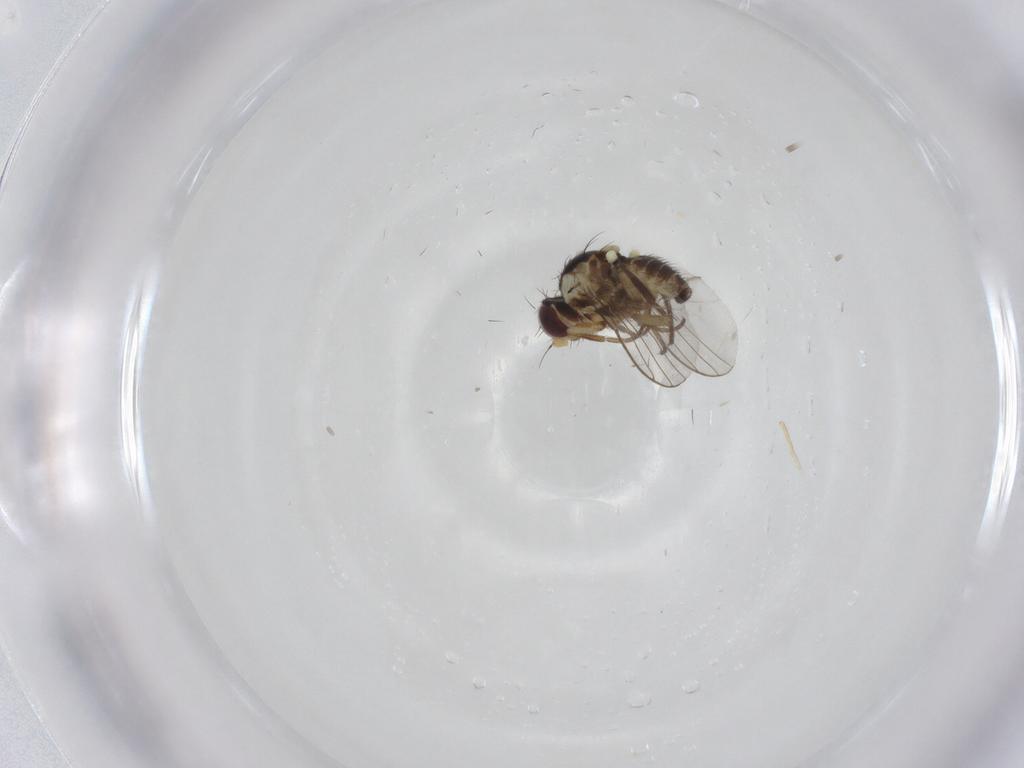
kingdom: Animalia
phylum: Arthropoda
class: Insecta
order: Diptera
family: Agromyzidae
